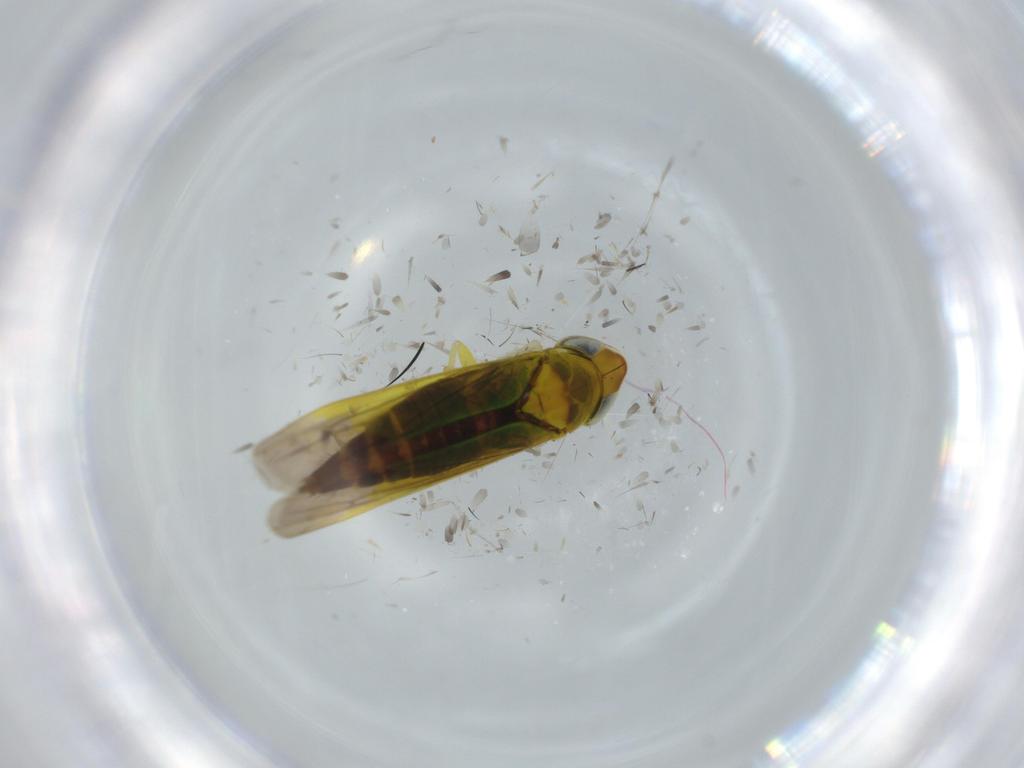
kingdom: Animalia
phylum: Arthropoda
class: Insecta
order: Hemiptera
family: Cicadellidae
